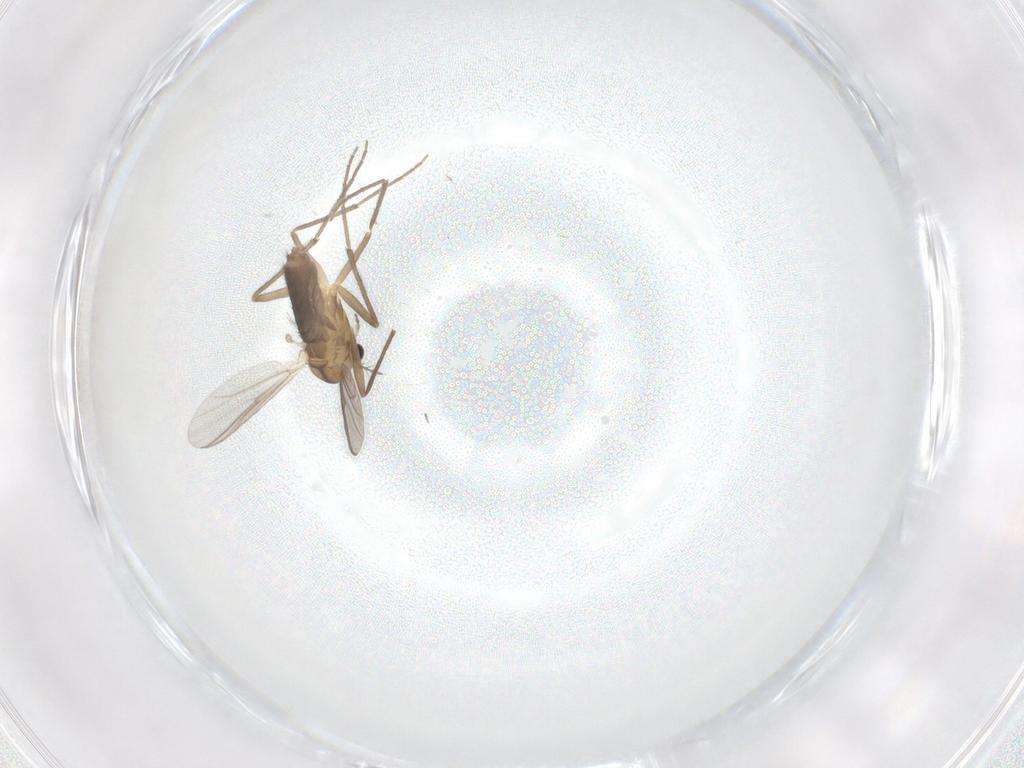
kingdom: Animalia
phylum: Arthropoda
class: Insecta
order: Diptera
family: Chironomidae
